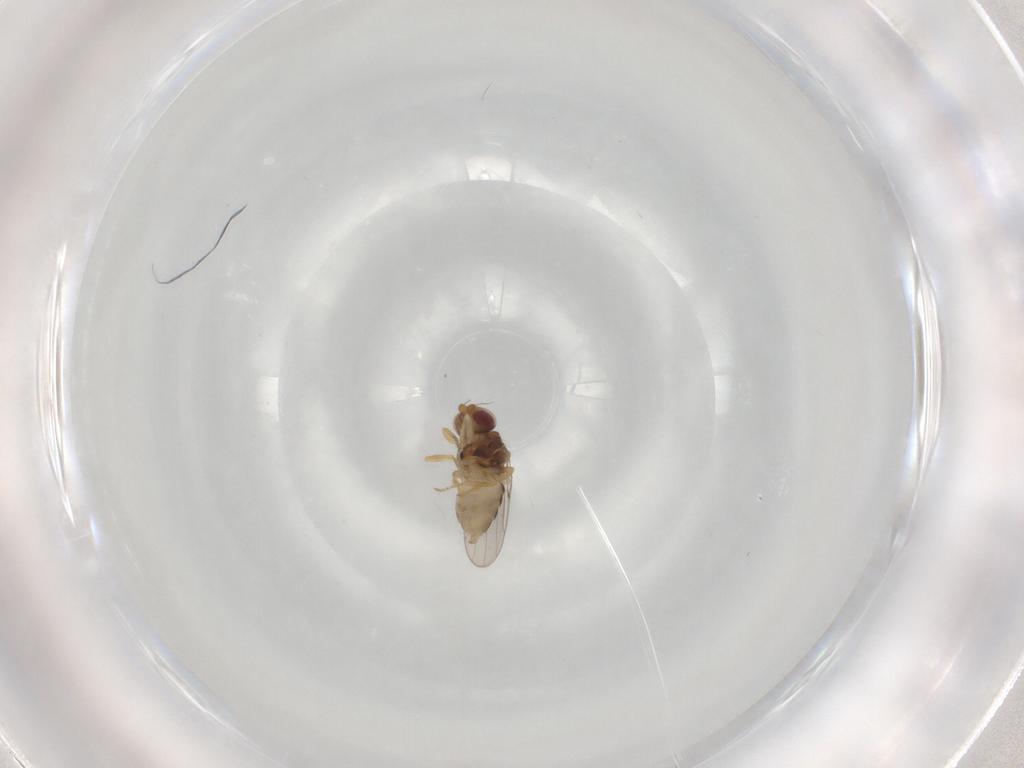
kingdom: Animalia
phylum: Arthropoda
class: Insecta
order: Diptera
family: Chloropidae
